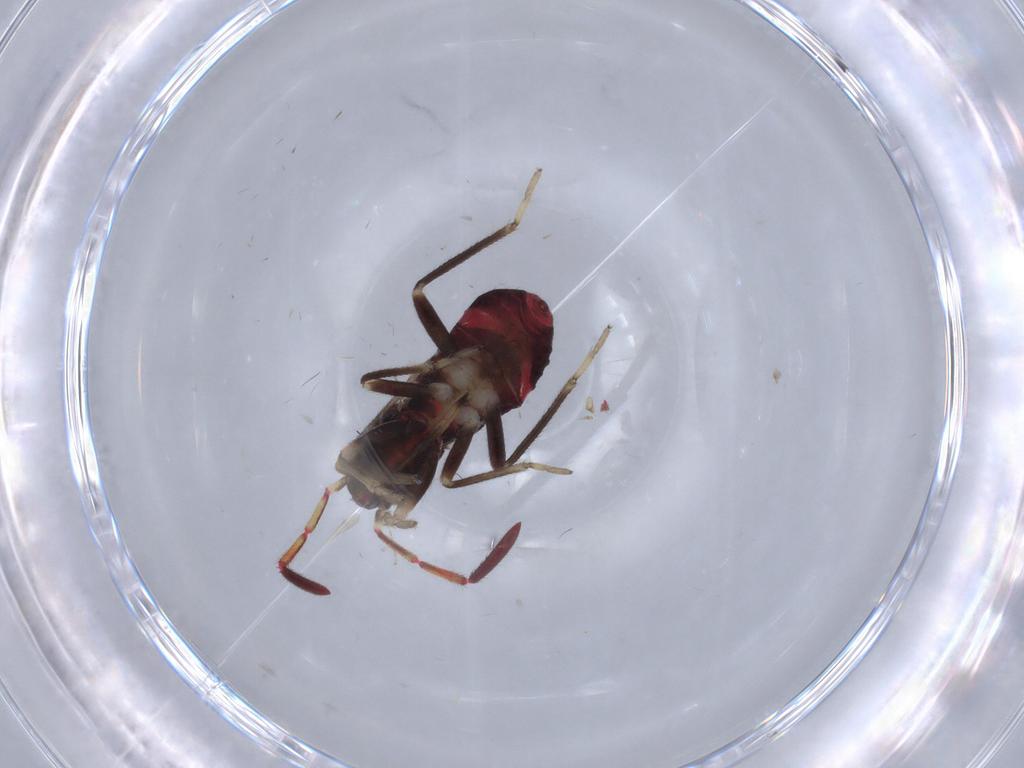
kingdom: Animalia
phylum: Arthropoda
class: Insecta
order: Hemiptera
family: Rhyparochromidae
